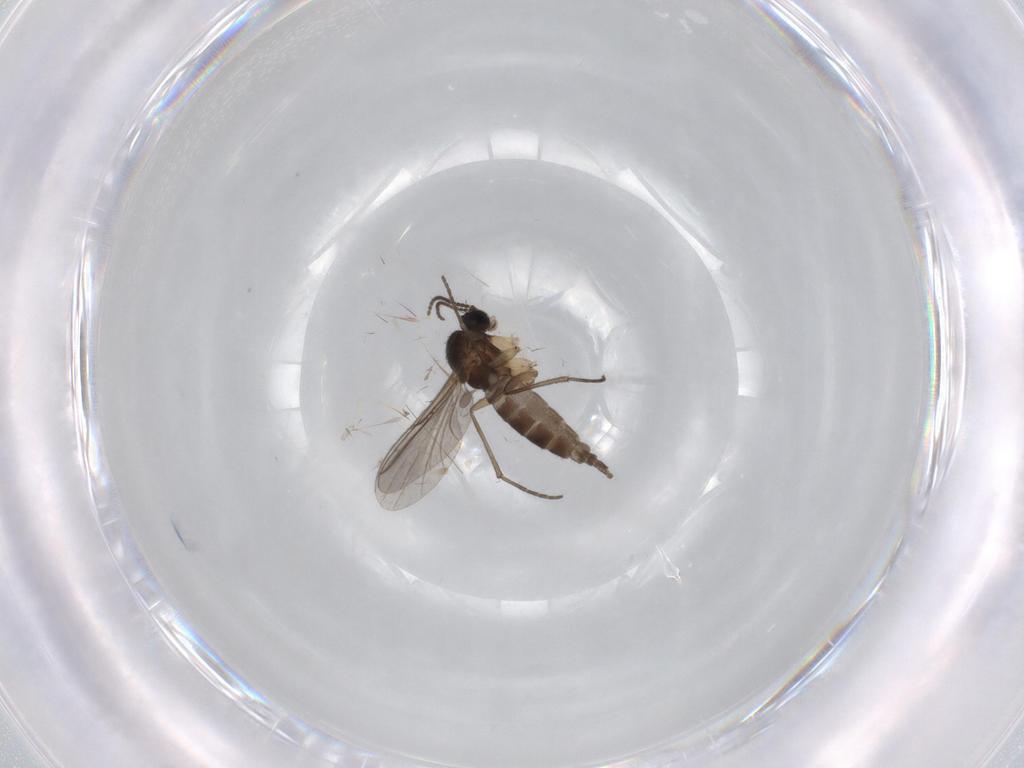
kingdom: Animalia
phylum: Arthropoda
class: Insecta
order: Diptera
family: Sciaridae
